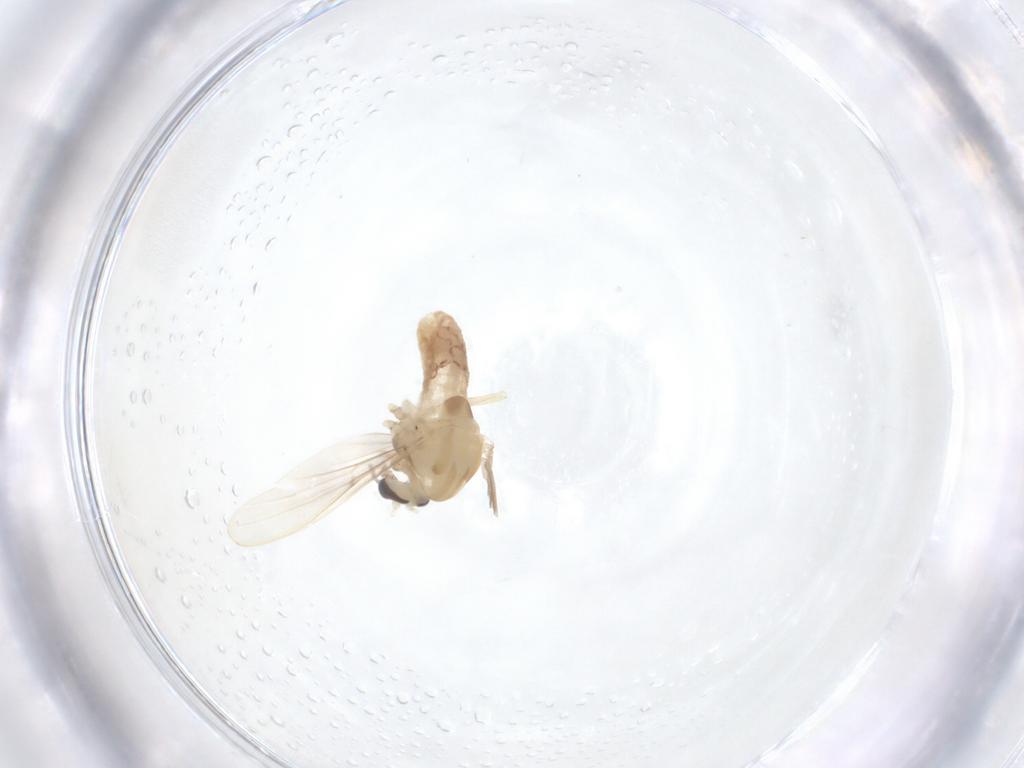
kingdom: Animalia
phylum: Arthropoda
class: Insecta
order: Diptera
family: Chironomidae
